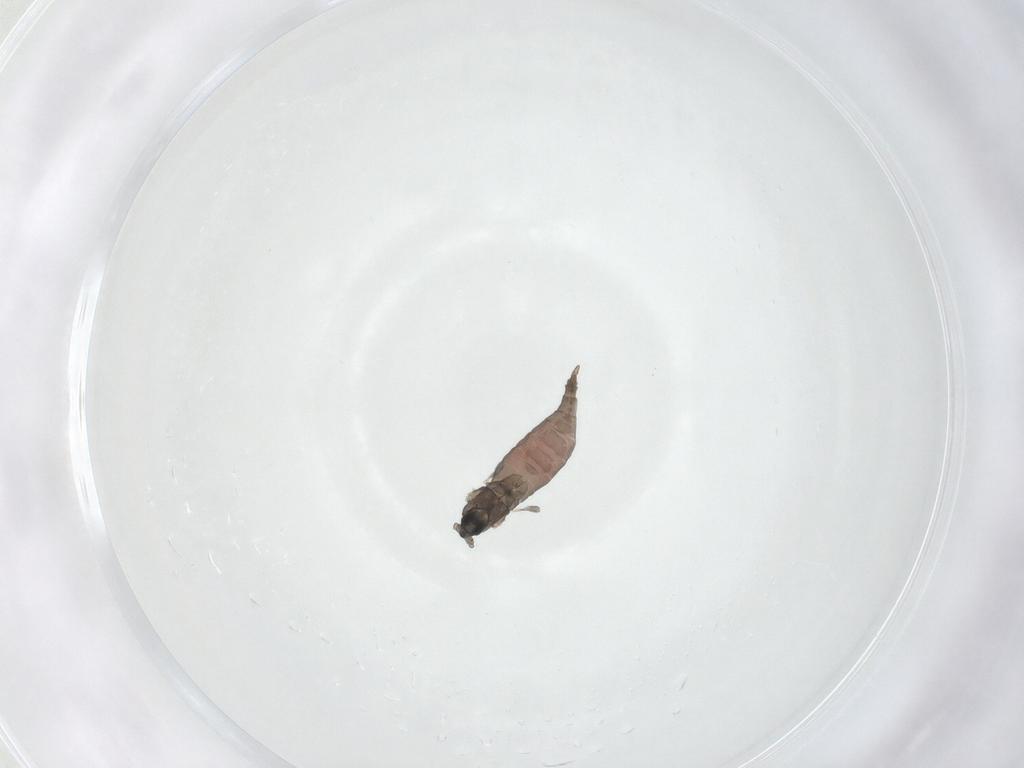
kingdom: Animalia
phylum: Arthropoda
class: Insecta
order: Diptera
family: Cecidomyiidae
